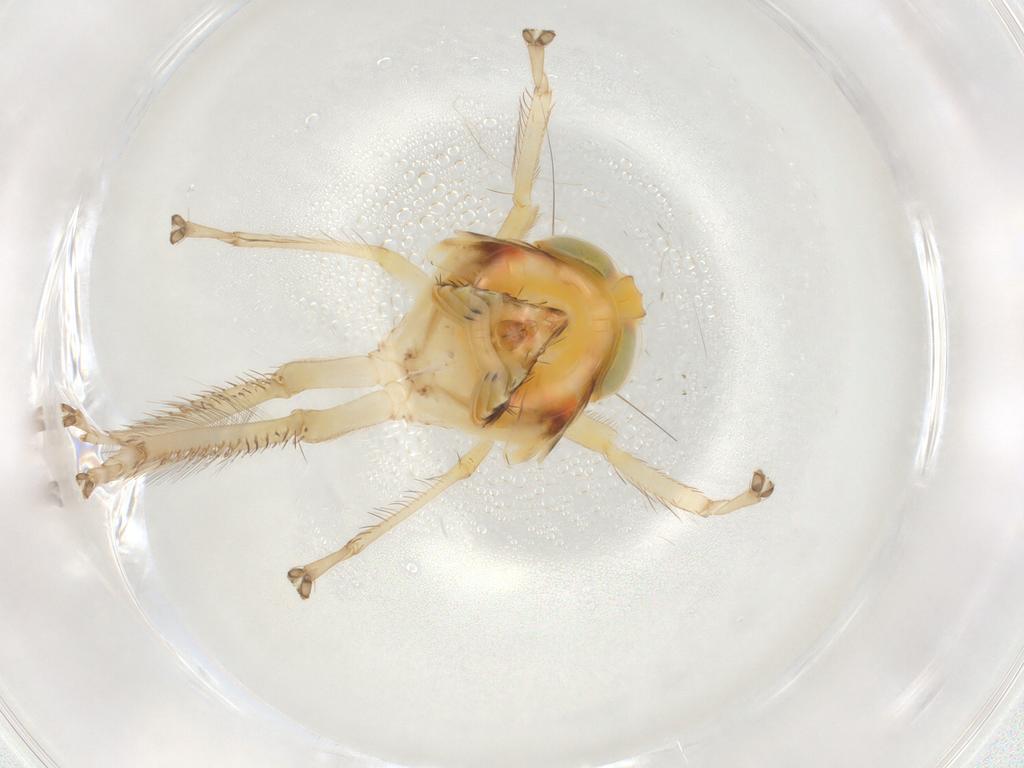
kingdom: Animalia
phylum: Arthropoda
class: Insecta
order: Hemiptera
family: Cicadellidae
